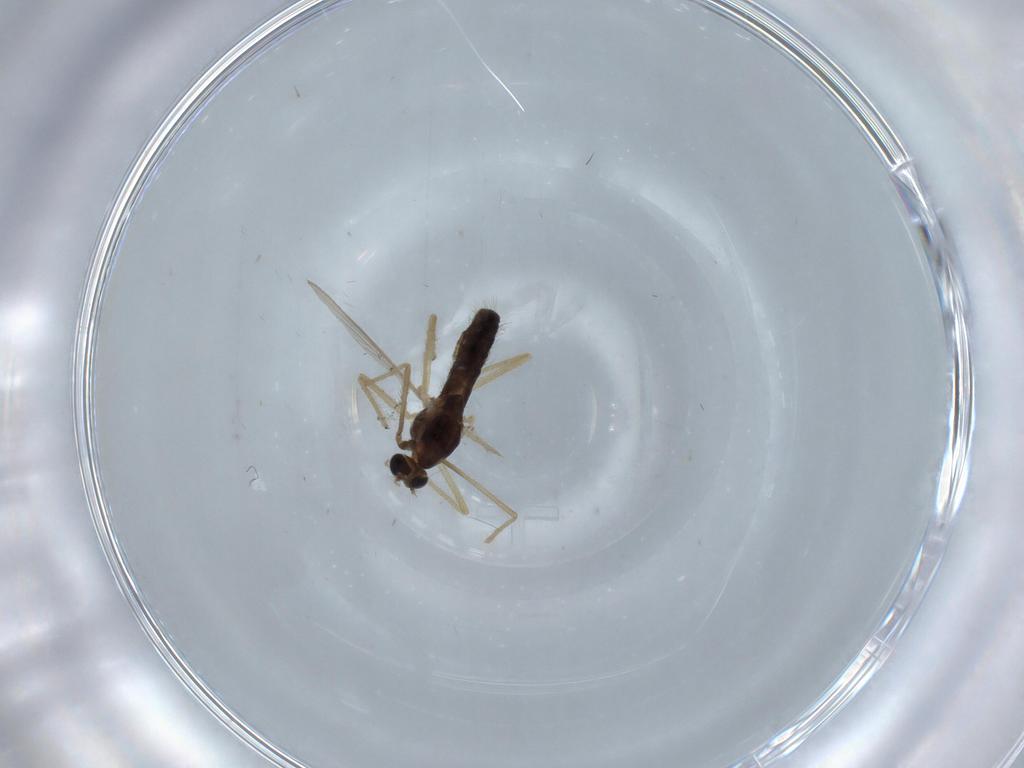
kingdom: Animalia
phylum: Arthropoda
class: Insecta
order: Diptera
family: Chironomidae
